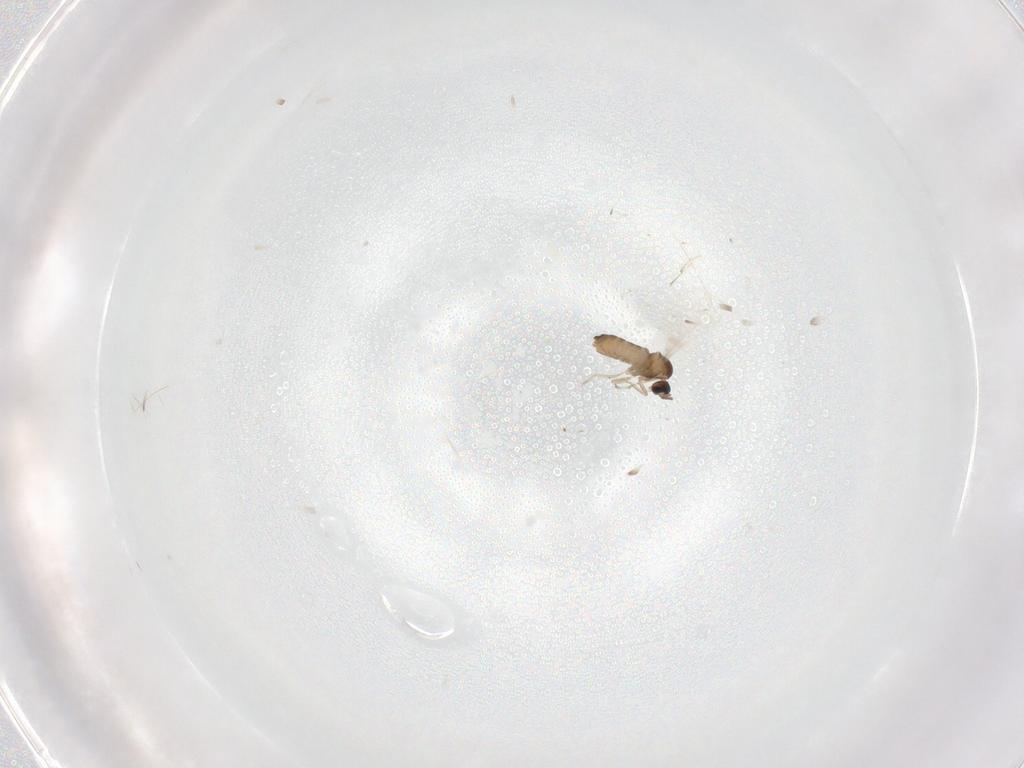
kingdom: Animalia
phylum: Arthropoda
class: Insecta
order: Diptera
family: Cecidomyiidae
